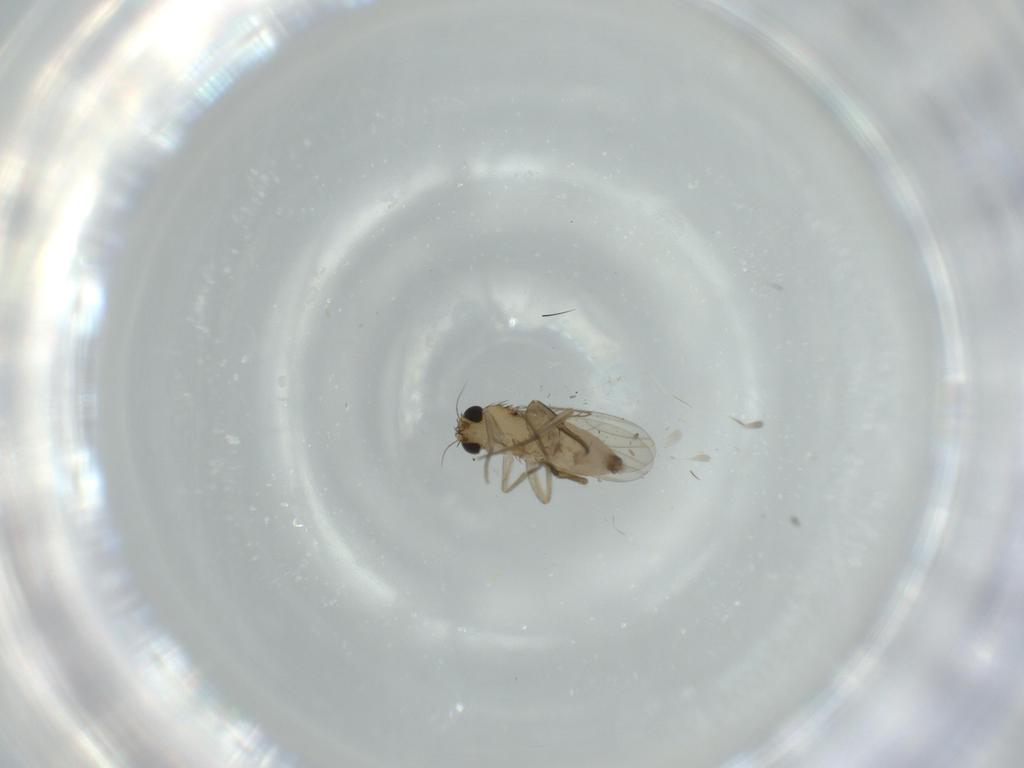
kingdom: Animalia
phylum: Arthropoda
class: Insecta
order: Diptera
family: Phoridae
